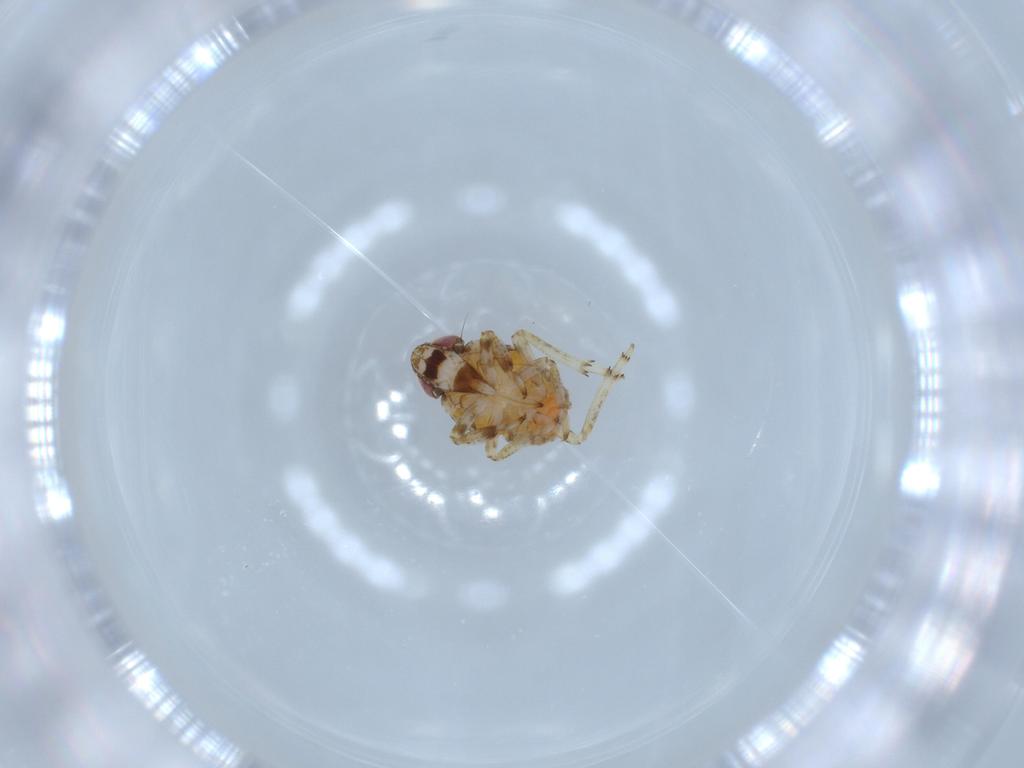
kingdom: Animalia
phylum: Arthropoda
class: Insecta
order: Hemiptera
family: Issidae
